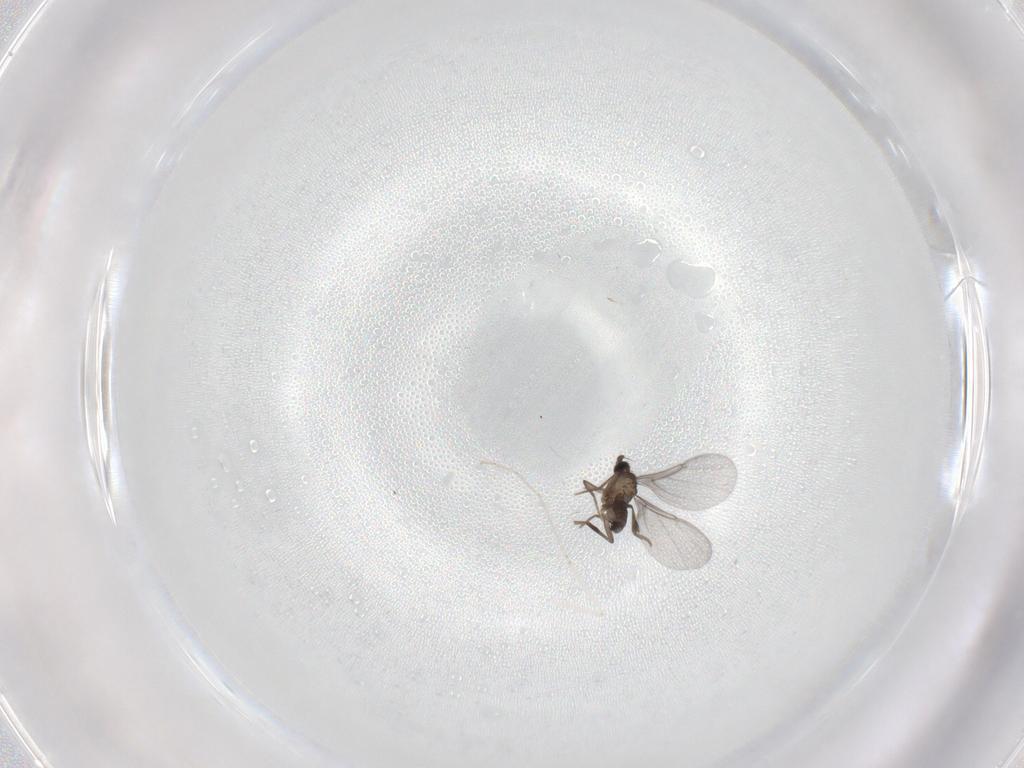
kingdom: Animalia
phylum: Arthropoda
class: Insecta
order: Diptera
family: Phoridae
